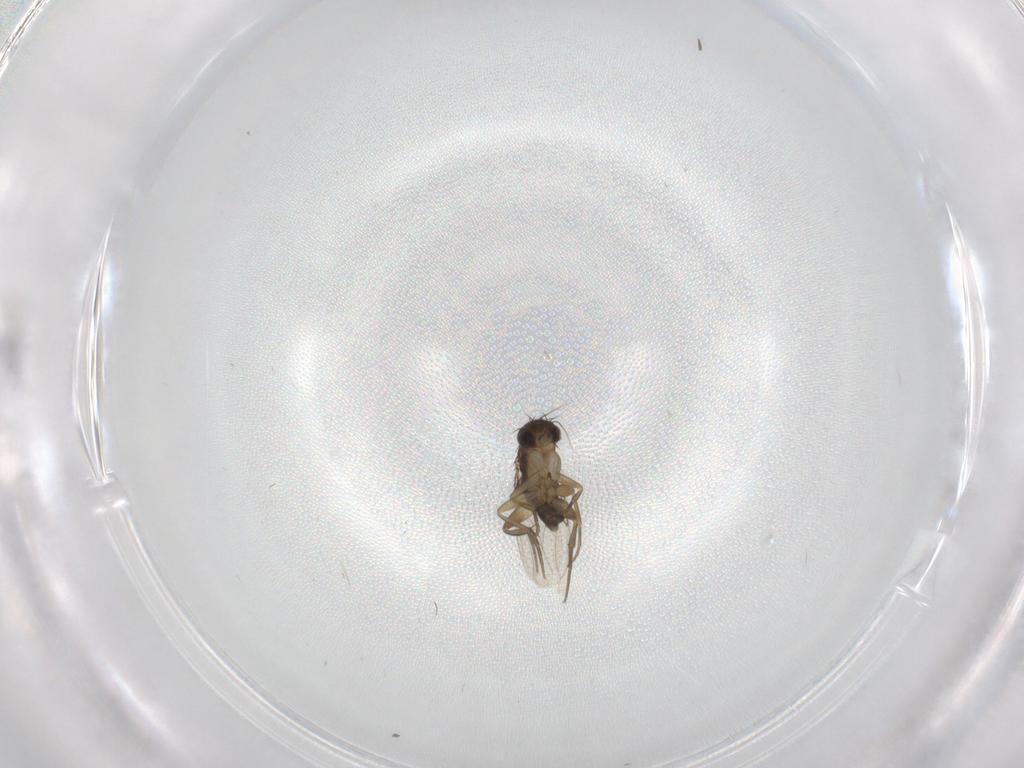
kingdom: Animalia
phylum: Arthropoda
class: Insecta
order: Diptera
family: Phoridae
